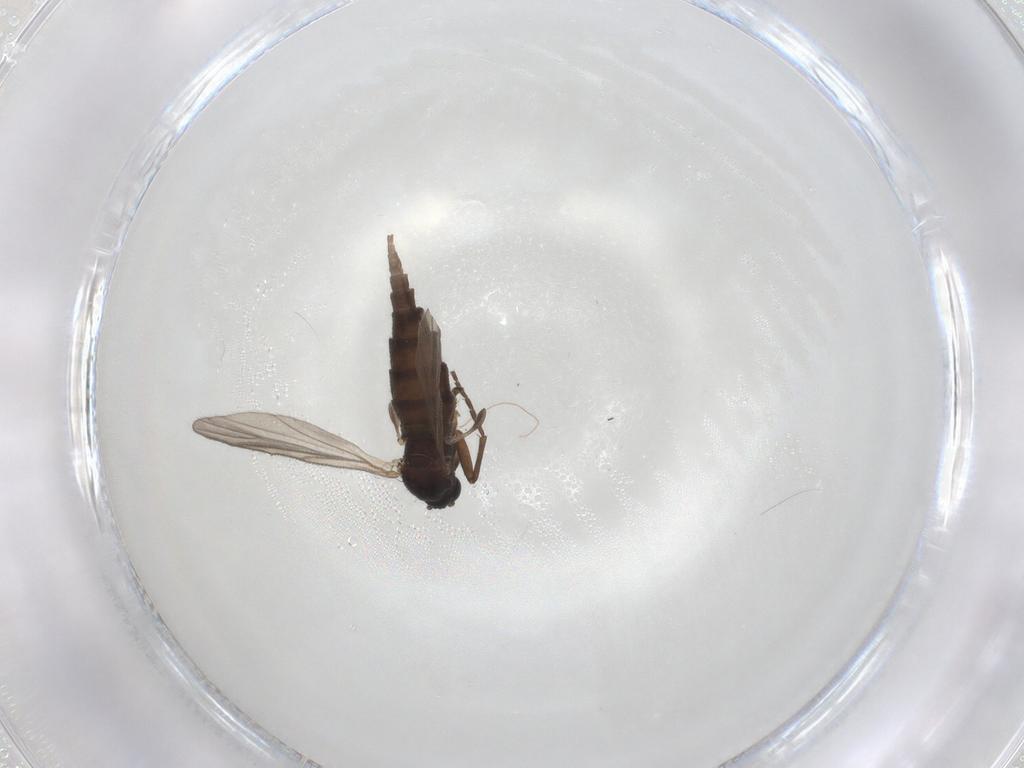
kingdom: Animalia
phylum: Arthropoda
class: Insecta
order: Diptera
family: Sciaridae
